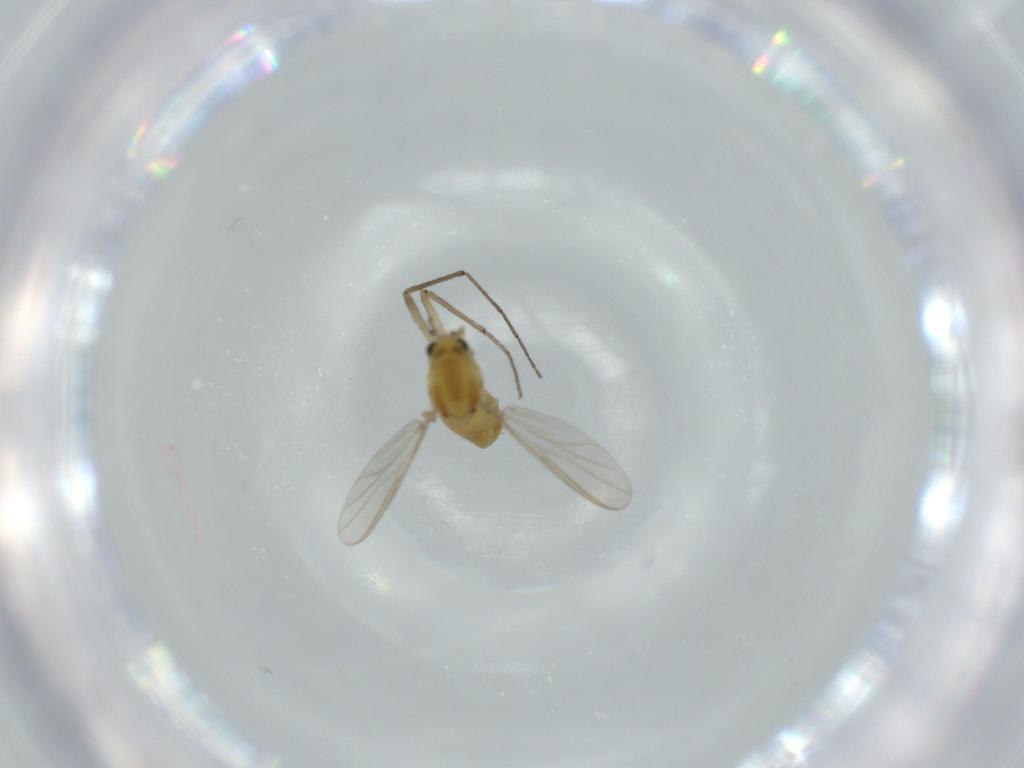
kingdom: Animalia
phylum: Arthropoda
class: Insecta
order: Diptera
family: Chironomidae
